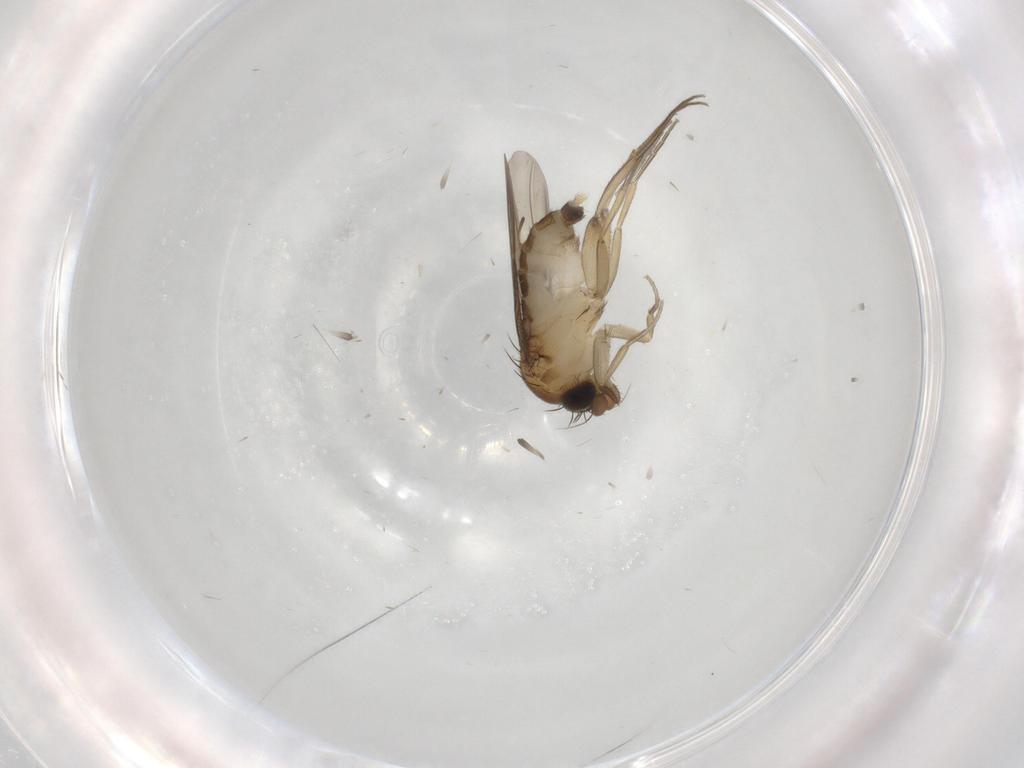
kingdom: Animalia
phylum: Arthropoda
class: Insecta
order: Diptera
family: Phoridae
